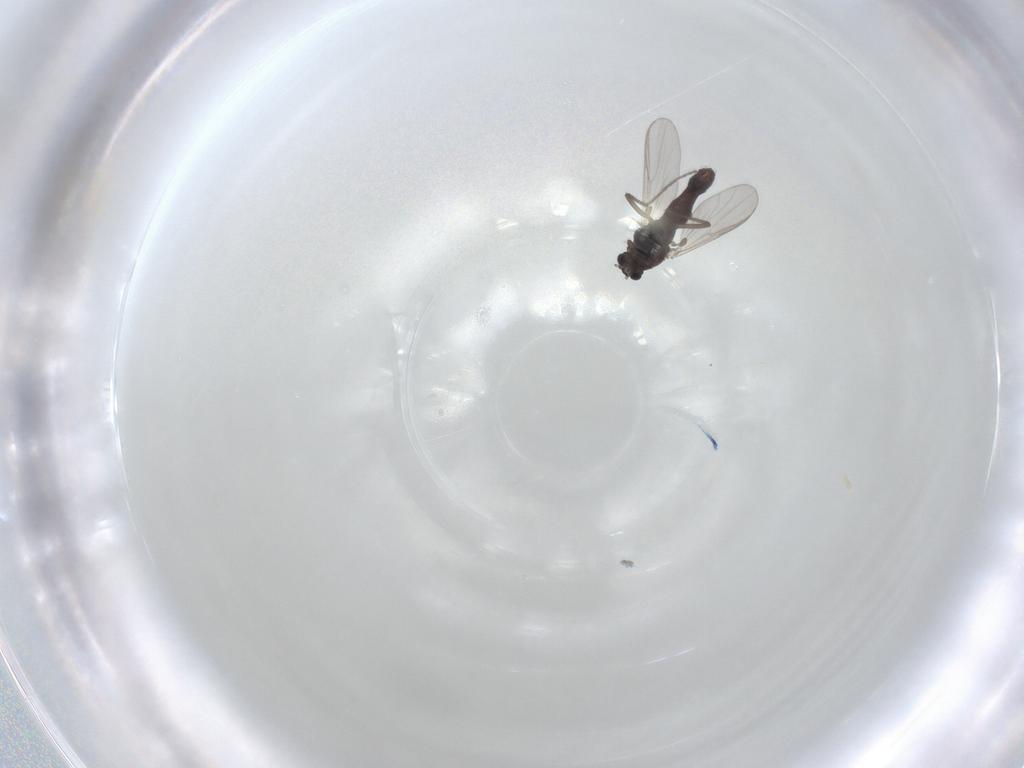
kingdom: Animalia
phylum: Arthropoda
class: Insecta
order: Diptera
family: Chironomidae
